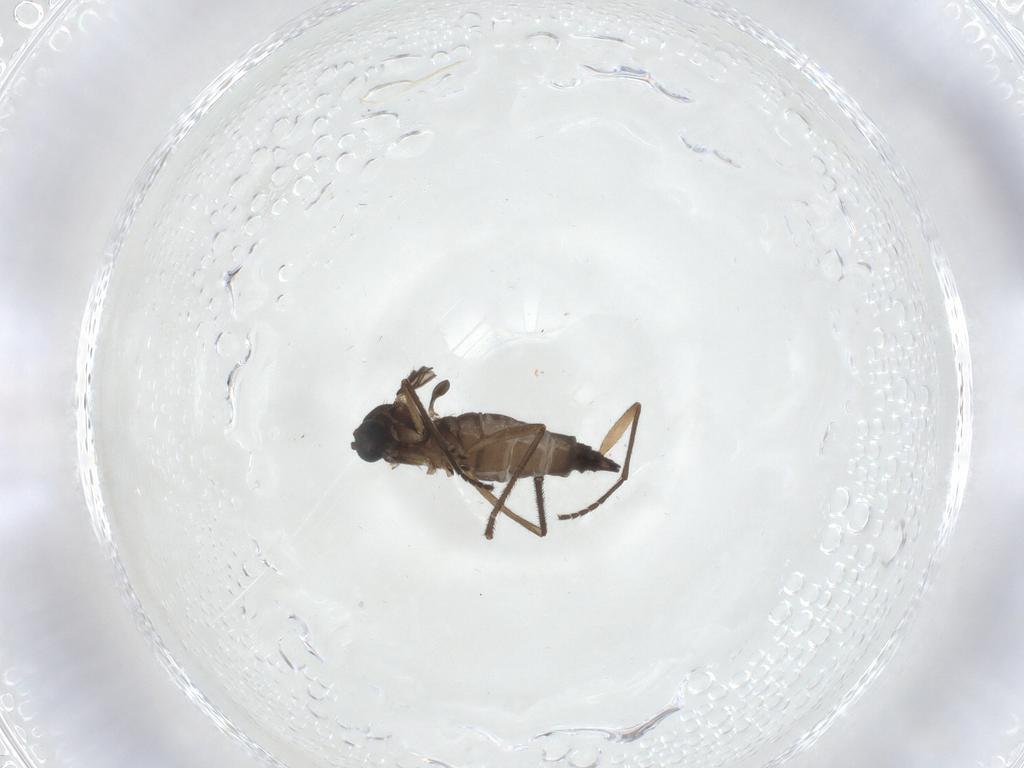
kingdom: Animalia
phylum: Arthropoda
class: Insecta
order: Diptera
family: Sciaridae
